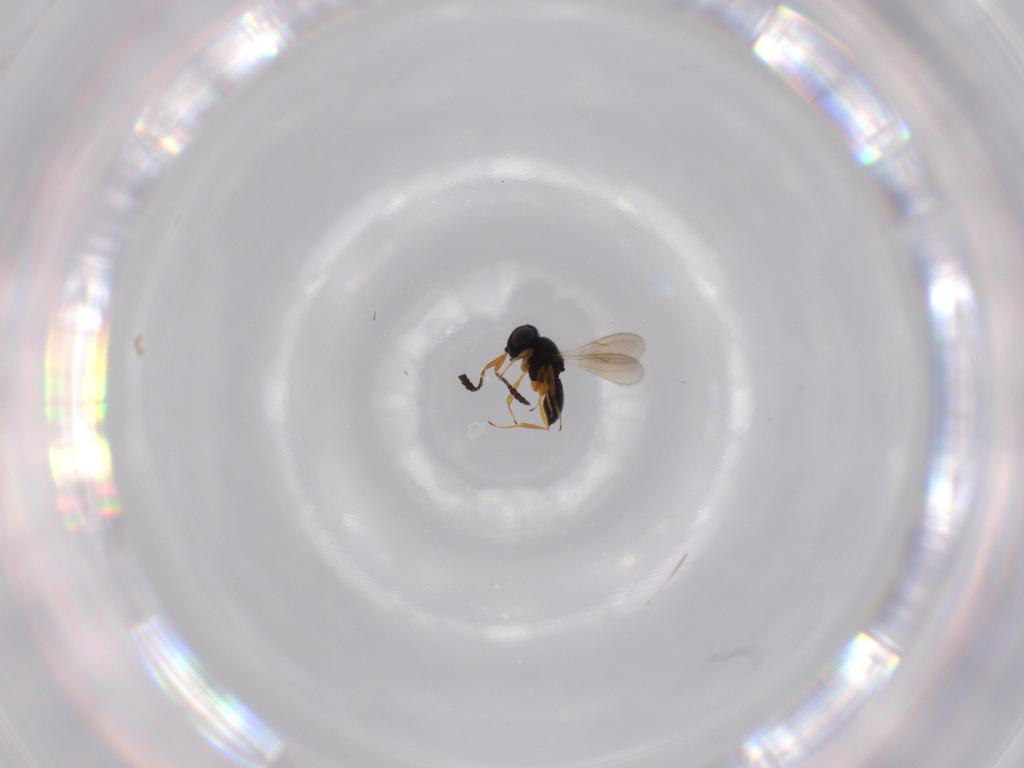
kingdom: Animalia
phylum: Arthropoda
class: Insecta
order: Hymenoptera
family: Scelionidae
